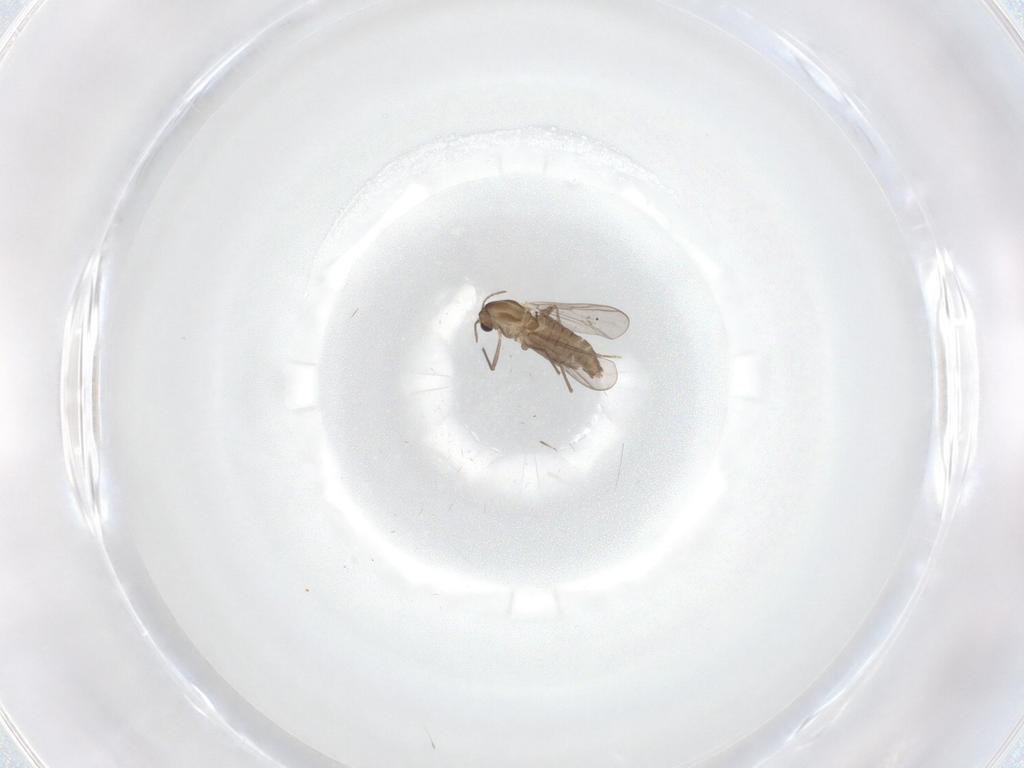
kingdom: Animalia
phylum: Arthropoda
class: Insecta
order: Diptera
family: Chironomidae
